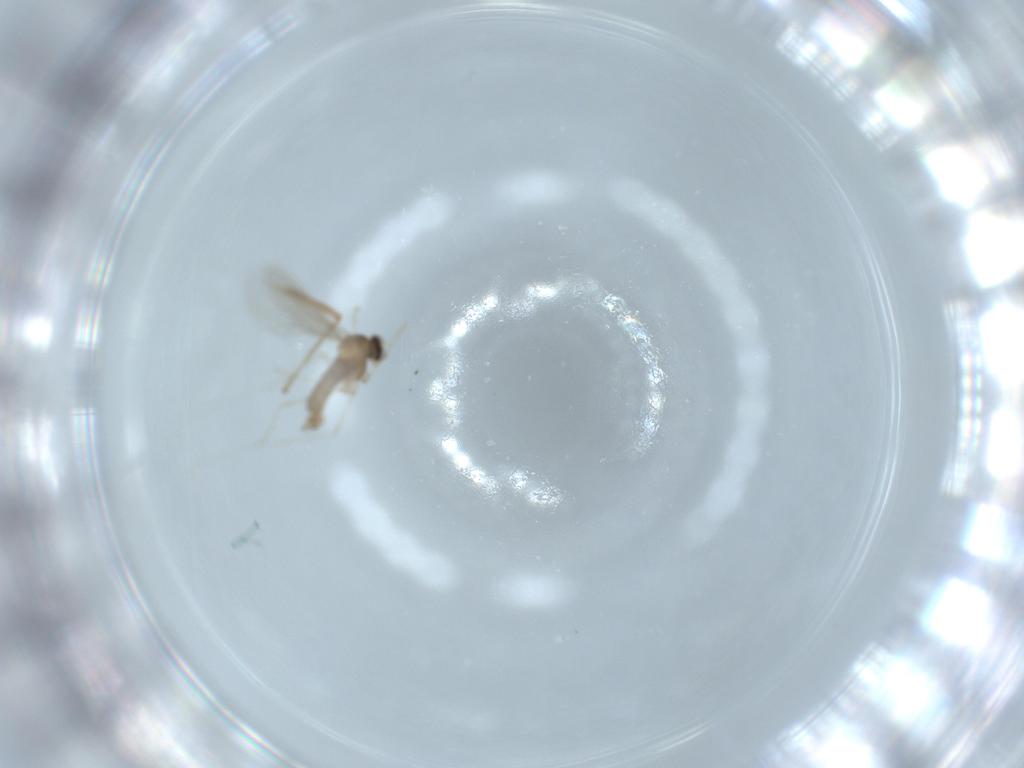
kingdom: Animalia
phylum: Arthropoda
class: Insecta
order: Diptera
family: Cecidomyiidae
